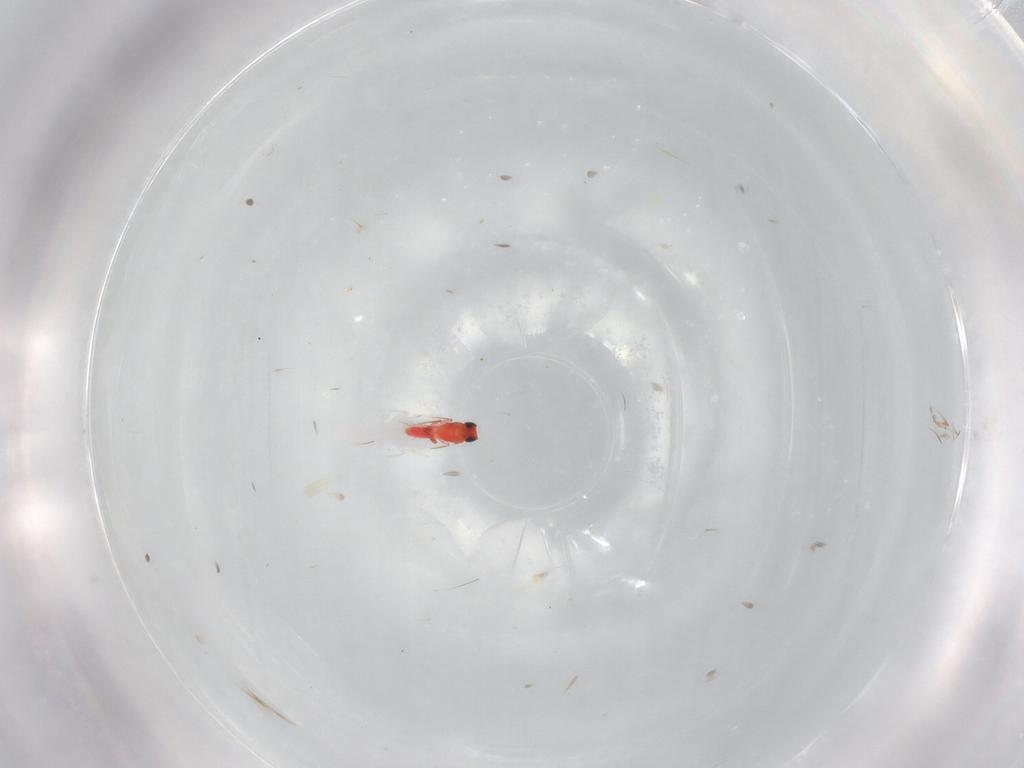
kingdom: Animalia
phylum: Arthropoda
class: Insecta
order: Hymenoptera
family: Trichogrammatidae
